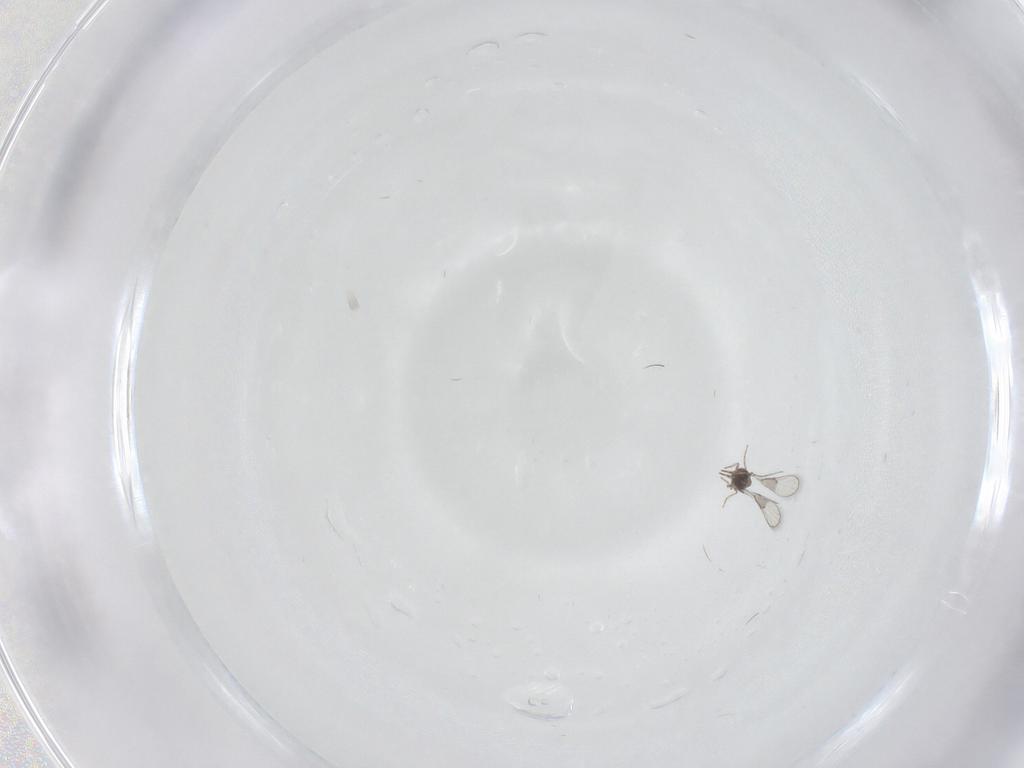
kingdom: Animalia
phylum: Arthropoda
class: Insecta
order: Hymenoptera
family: Trichogrammatidae
